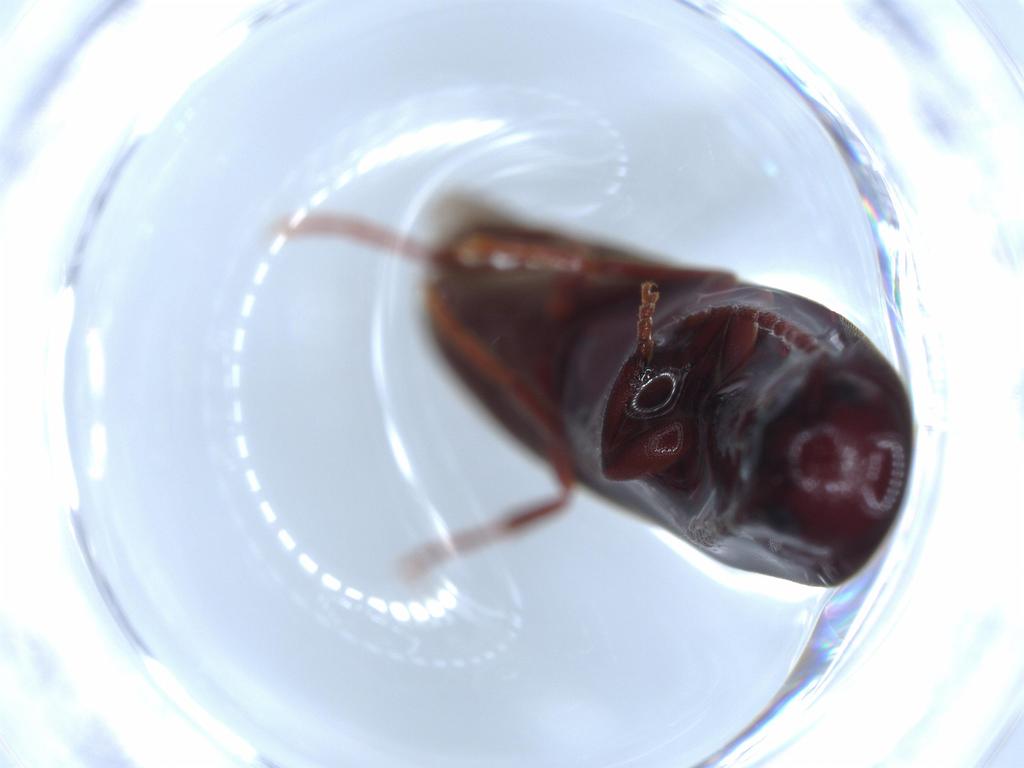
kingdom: Animalia
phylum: Arthropoda
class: Insecta
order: Coleoptera
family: Eucnemidae
